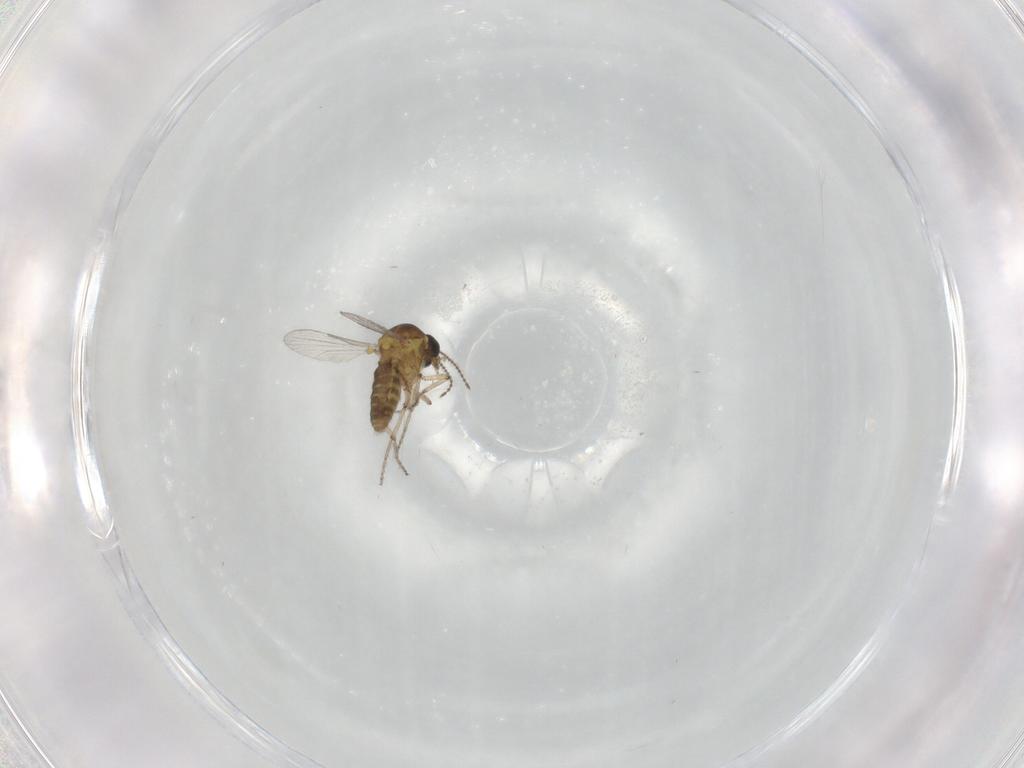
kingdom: Animalia
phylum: Arthropoda
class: Insecta
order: Diptera
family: Ceratopogonidae
